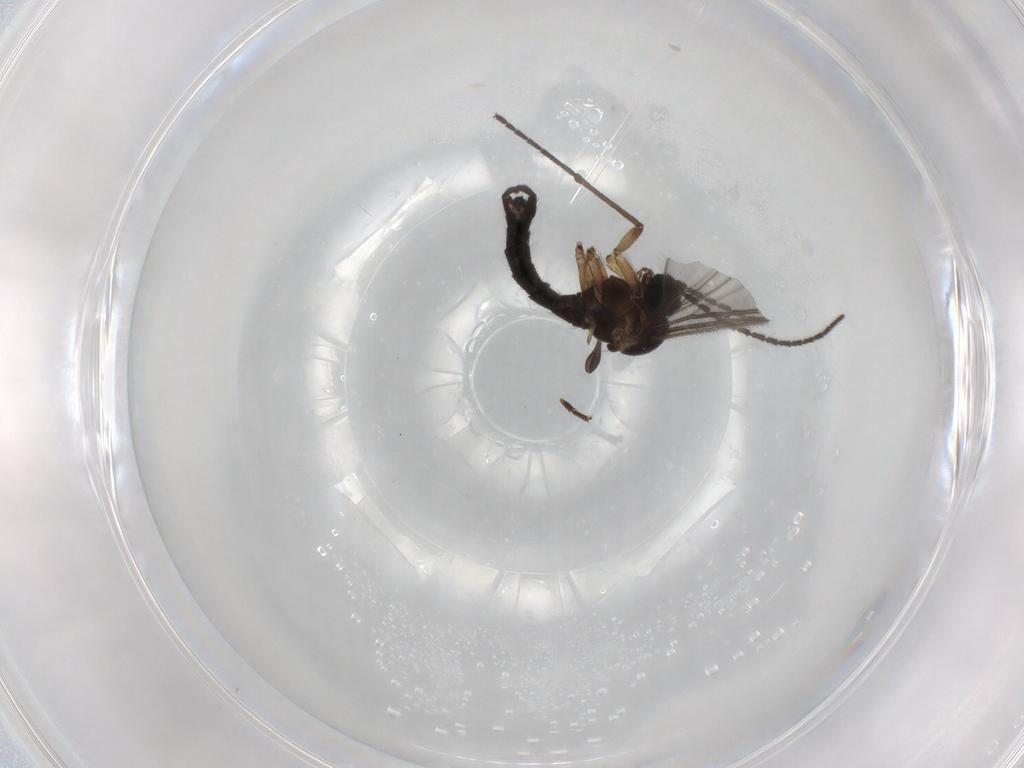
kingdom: Animalia
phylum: Arthropoda
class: Insecta
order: Diptera
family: Sciaridae
